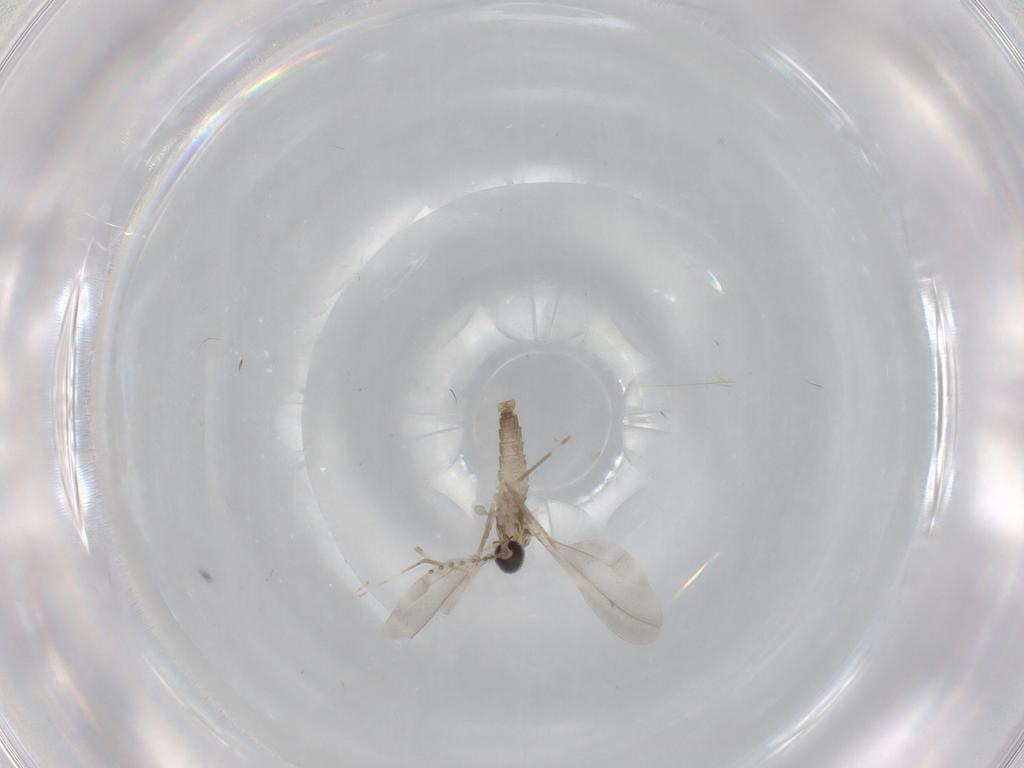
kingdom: Animalia
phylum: Arthropoda
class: Insecta
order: Diptera
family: Cecidomyiidae
